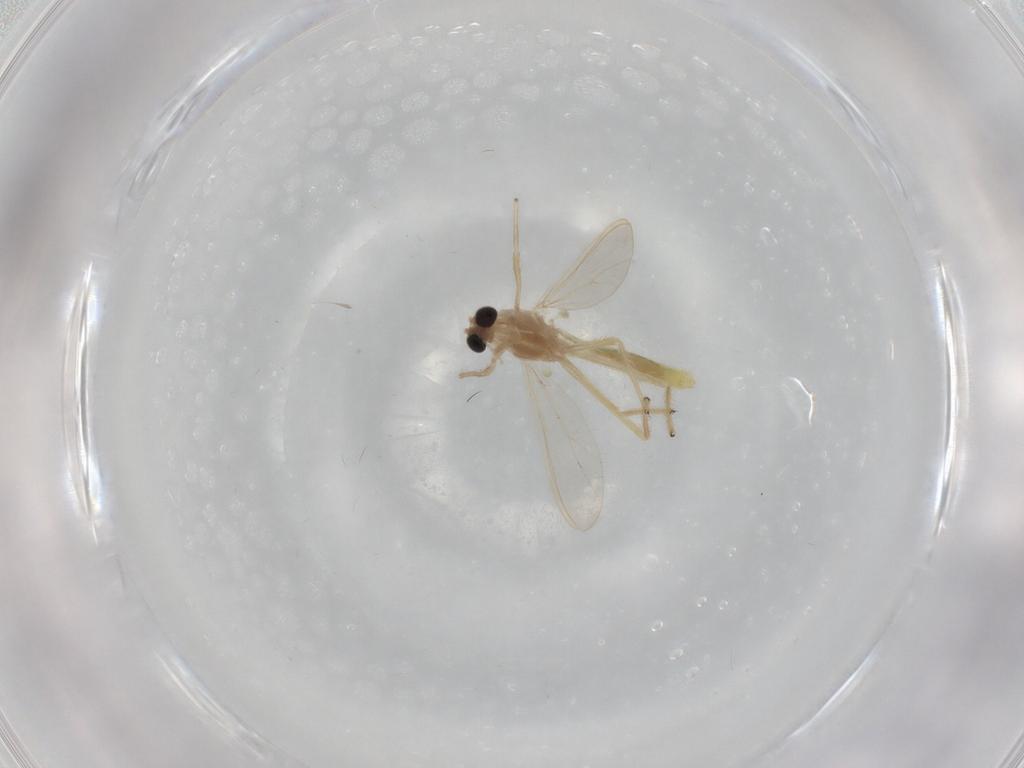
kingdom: Animalia
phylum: Arthropoda
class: Insecta
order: Diptera
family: Chironomidae
